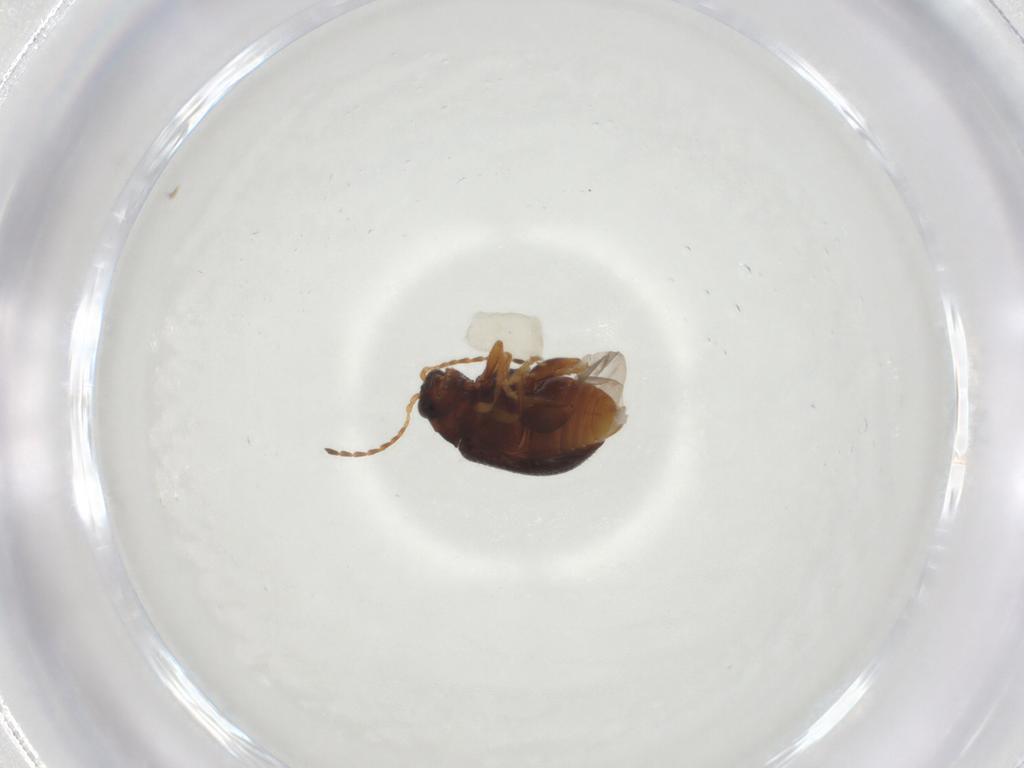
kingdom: Animalia
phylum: Arthropoda
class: Insecta
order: Coleoptera
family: Chrysomelidae
